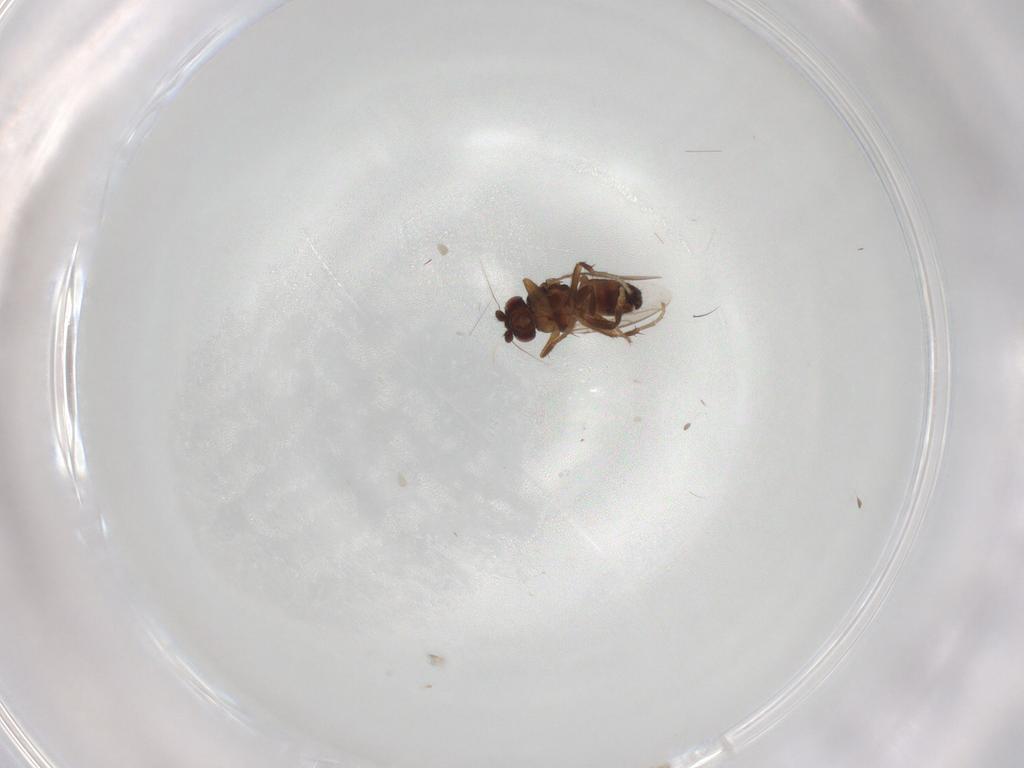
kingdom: Animalia
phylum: Arthropoda
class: Insecta
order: Diptera
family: Sphaeroceridae
